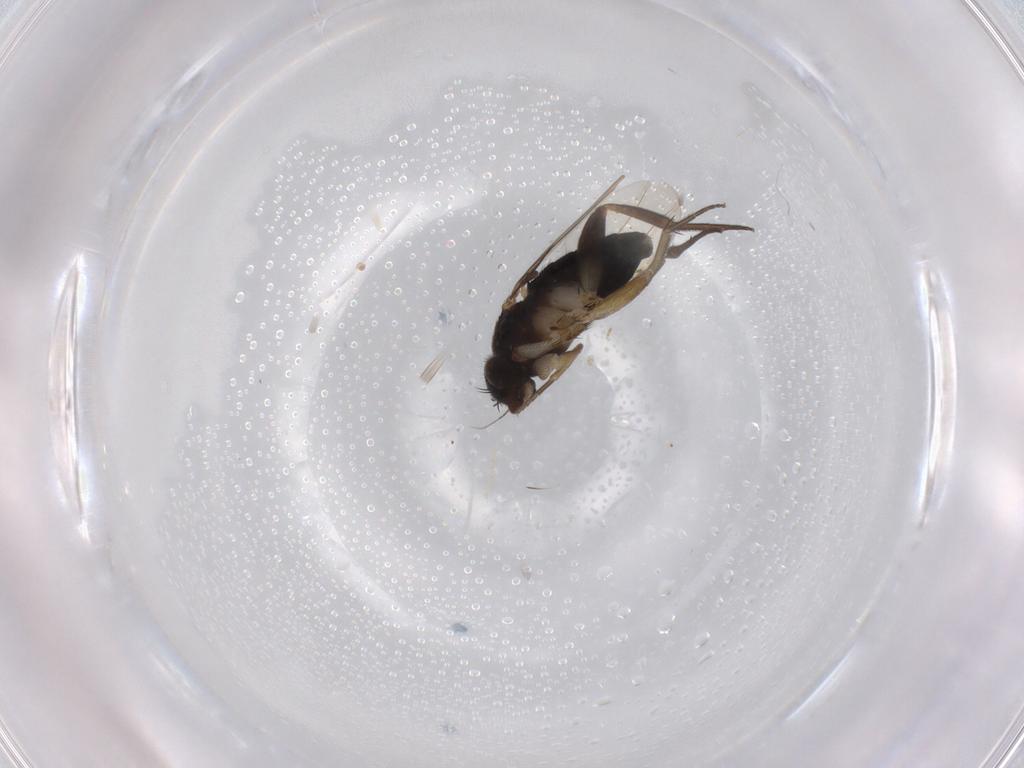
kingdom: Animalia
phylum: Arthropoda
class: Insecta
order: Diptera
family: Phoridae
